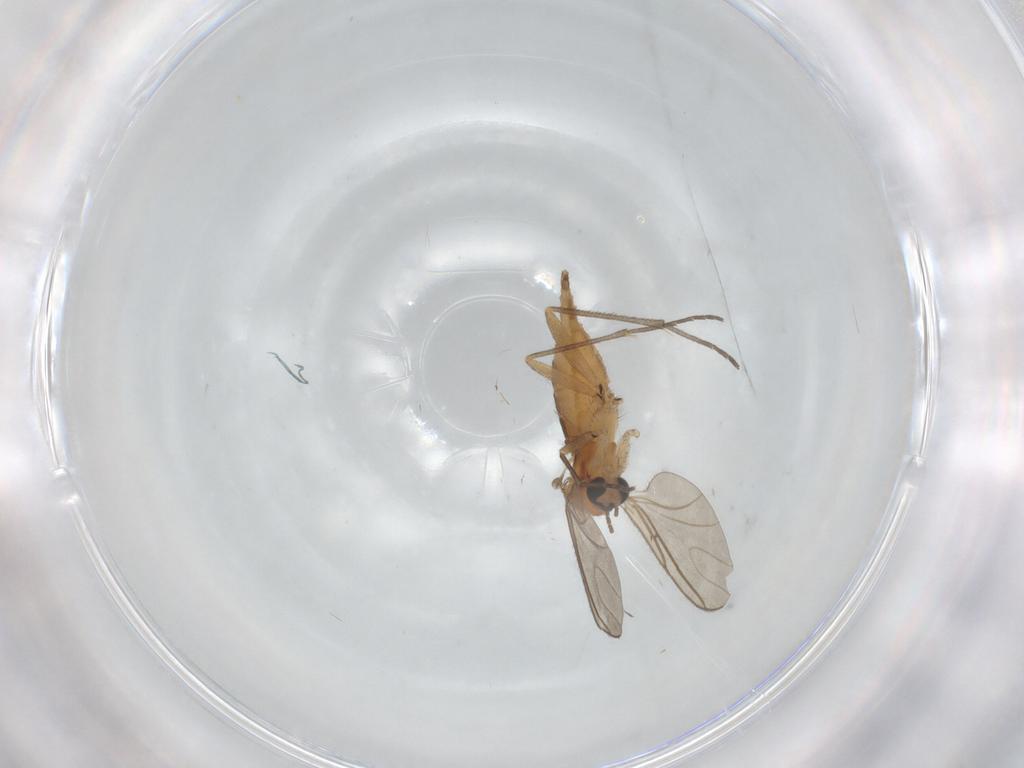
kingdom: Animalia
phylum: Arthropoda
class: Insecta
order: Diptera
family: Sciaridae
